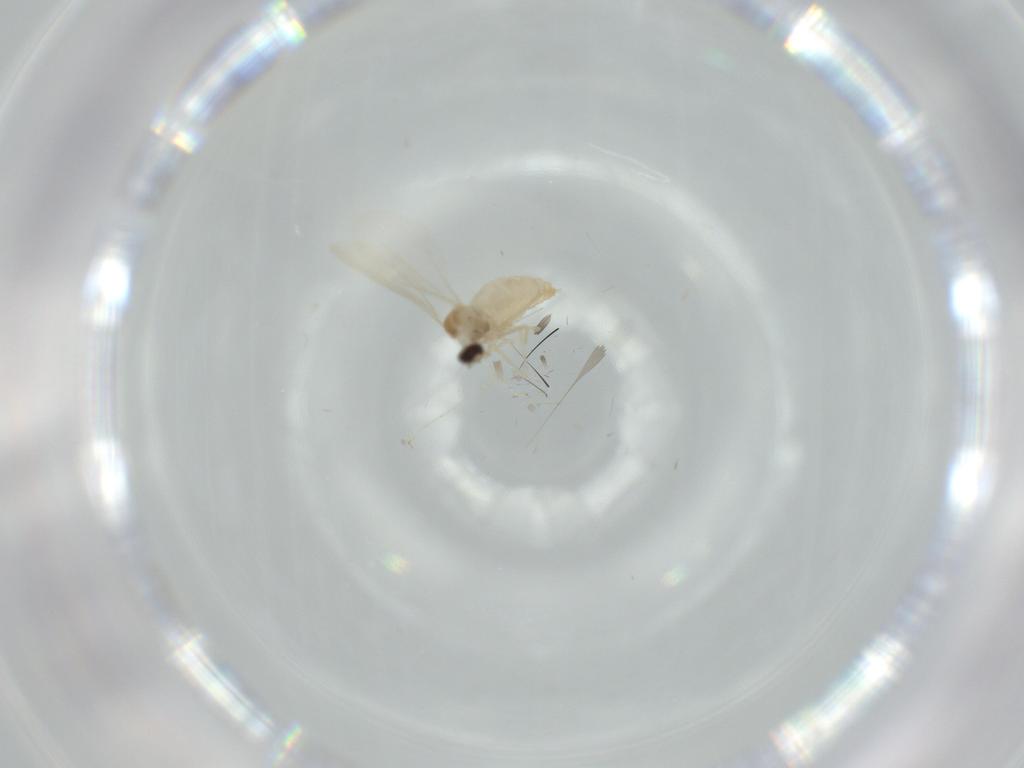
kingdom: Animalia
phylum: Arthropoda
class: Insecta
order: Diptera
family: Cecidomyiidae
